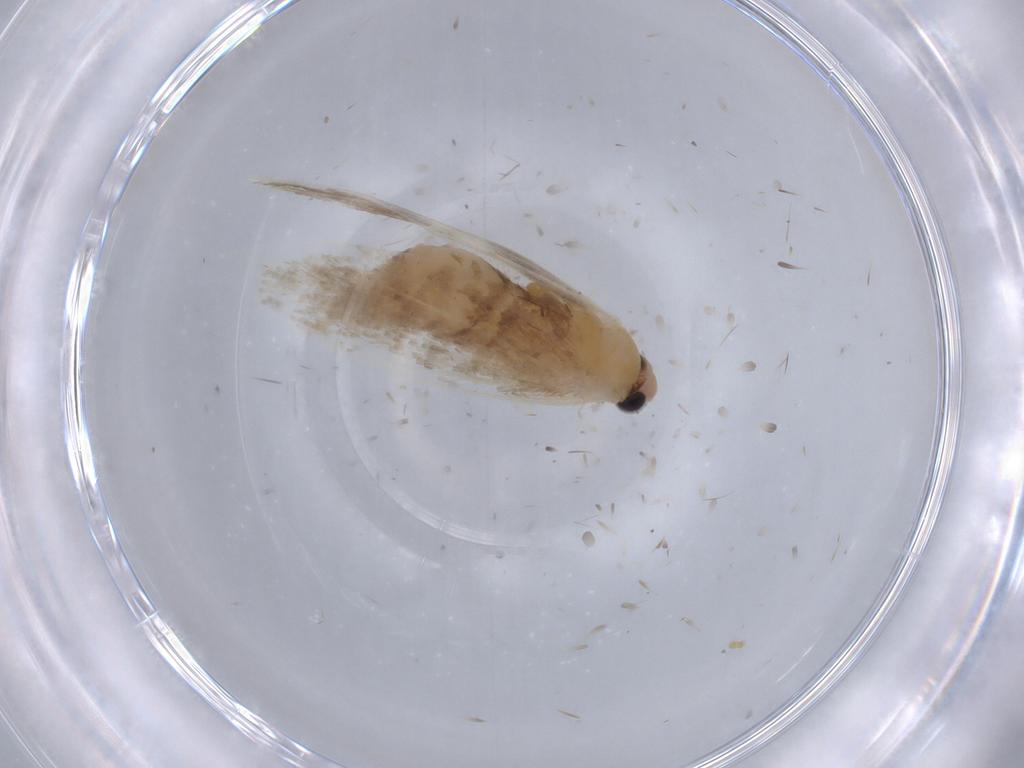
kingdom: Animalia
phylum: Arthropoda
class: Insecta
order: Lepidoptera
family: Tineidae
